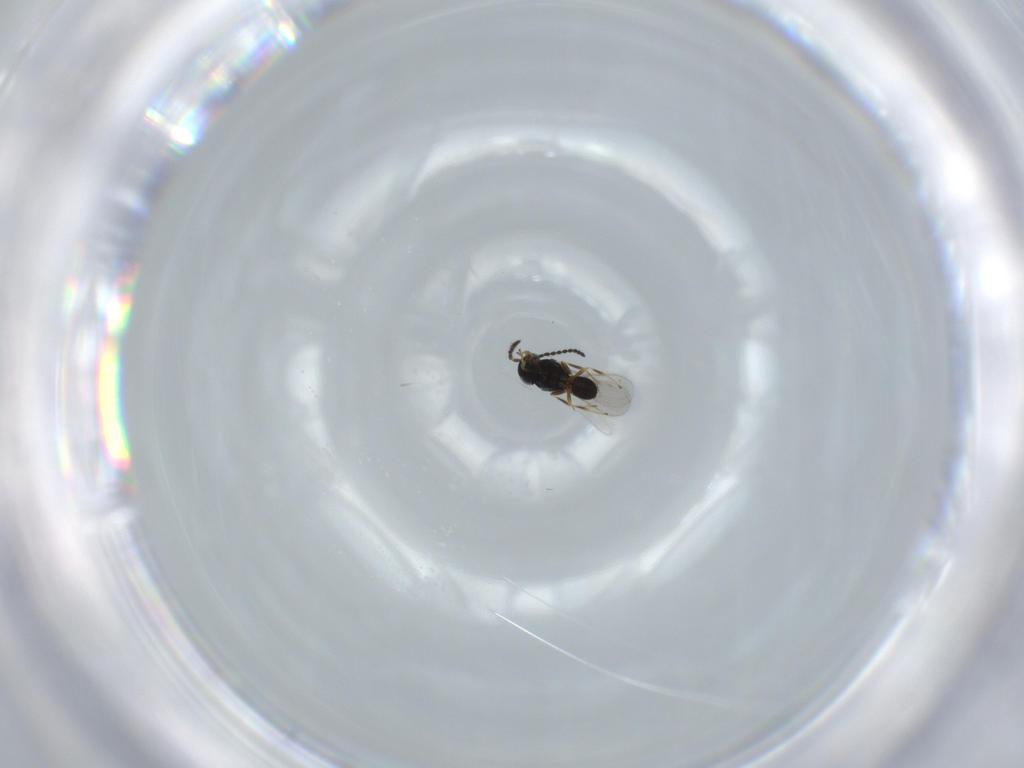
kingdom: Animalia
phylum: Arthropoda
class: Insecta
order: Hymenoptera
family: Scelionidae
